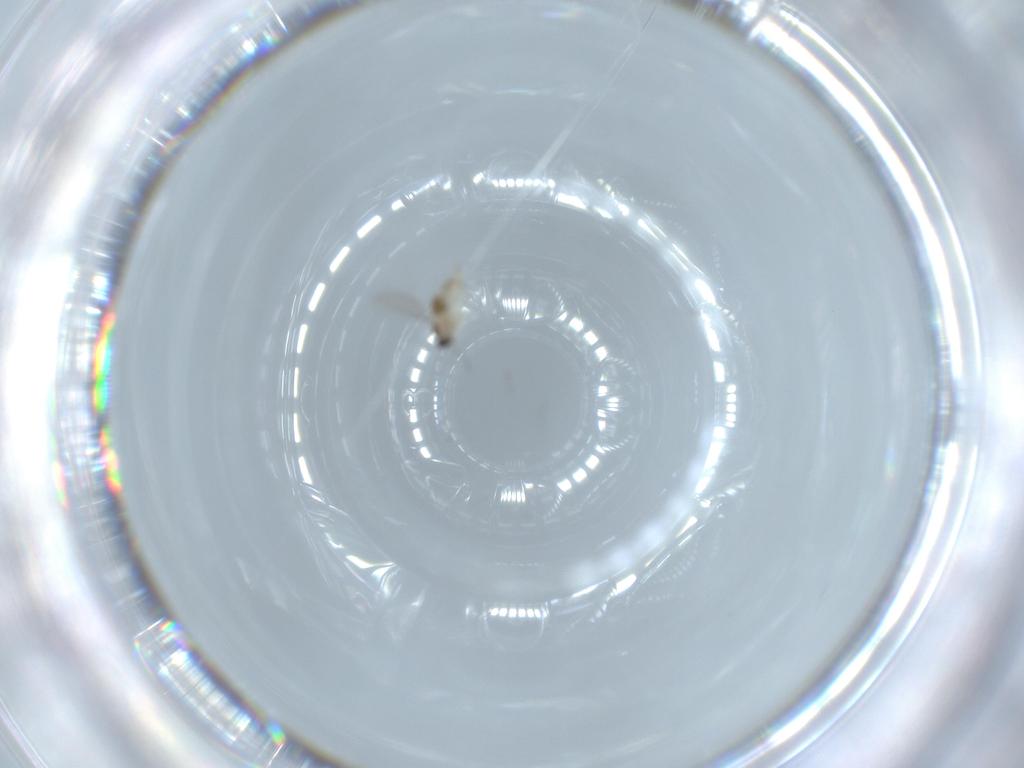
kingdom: Animalia
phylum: Arthropoda
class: Insecta
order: Diptera
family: Cecidomyiidae
